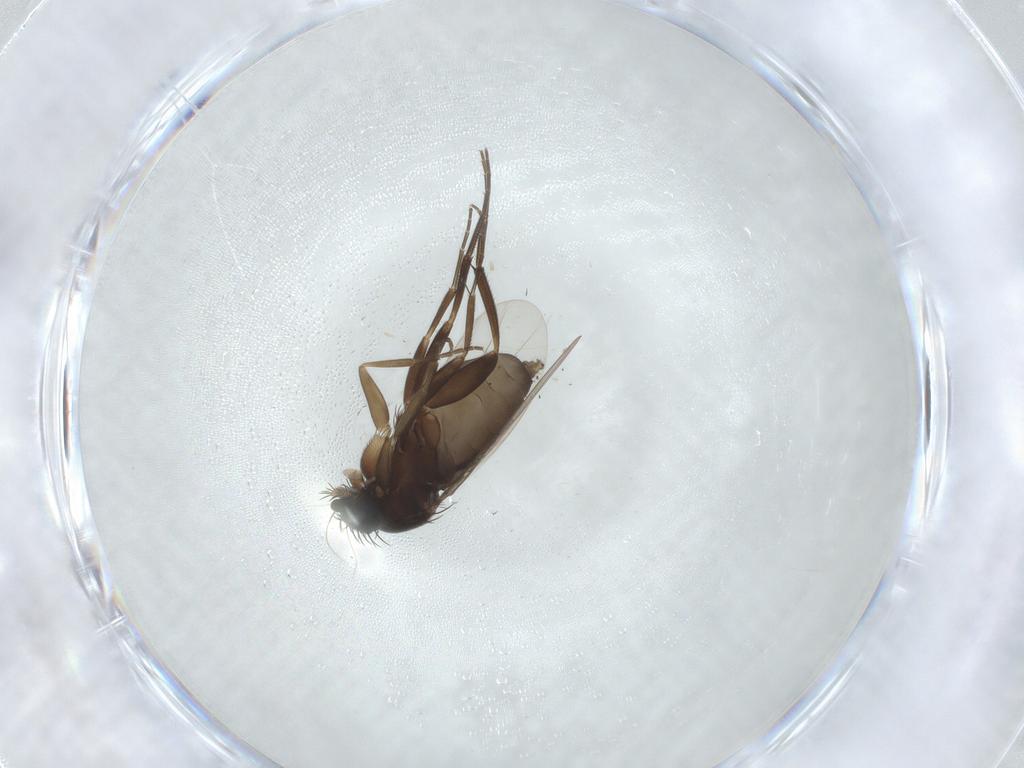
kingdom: Animalia
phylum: Arthropoda
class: Insecta
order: Diptera
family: Phoridae
